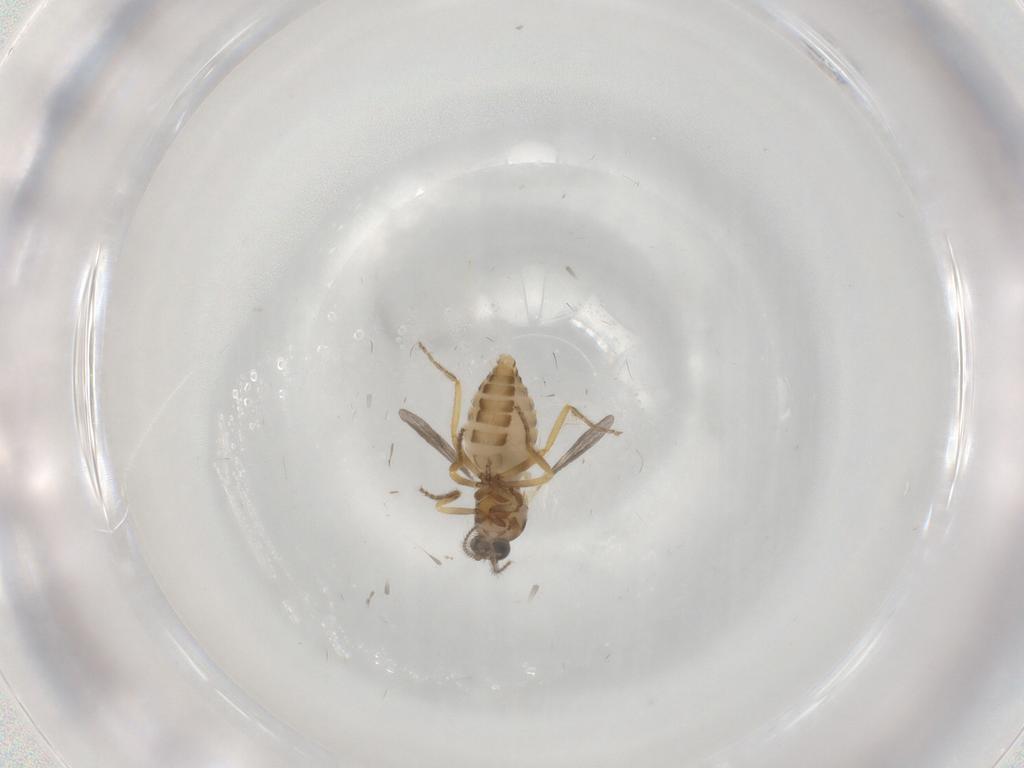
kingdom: Animalia
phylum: Arthropoda
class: Insecta
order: Diptera
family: Ceratopogonidae
